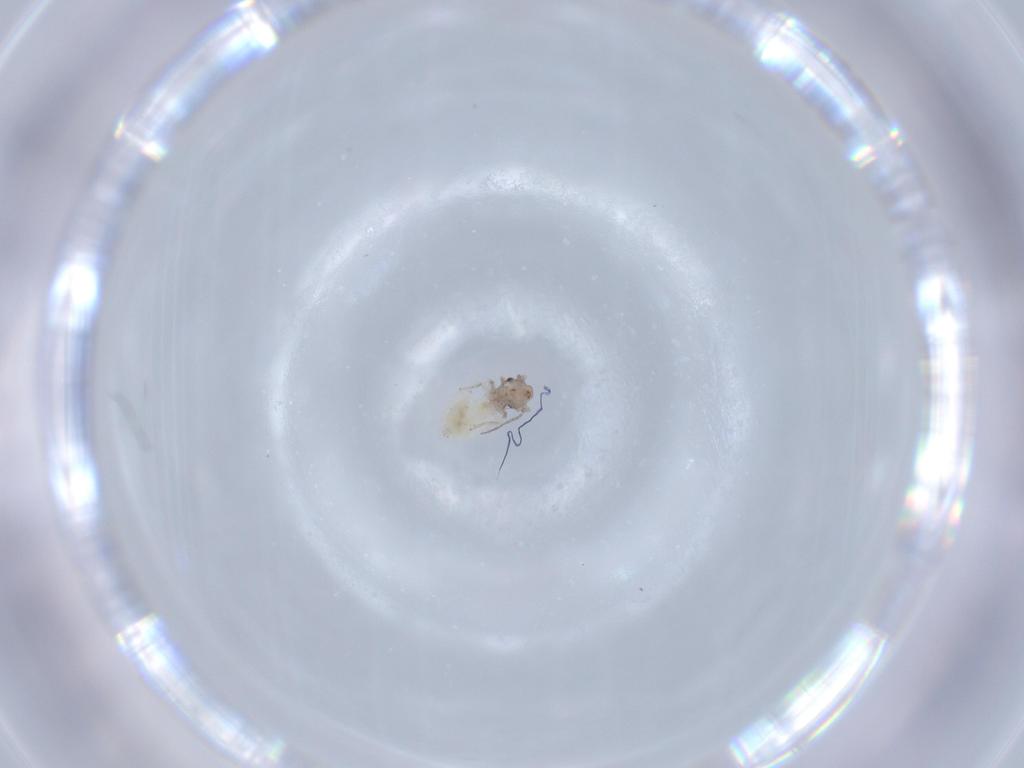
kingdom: Animalia
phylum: Arthropoda
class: Insecta
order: Psocodea
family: Lepidopsocidae
